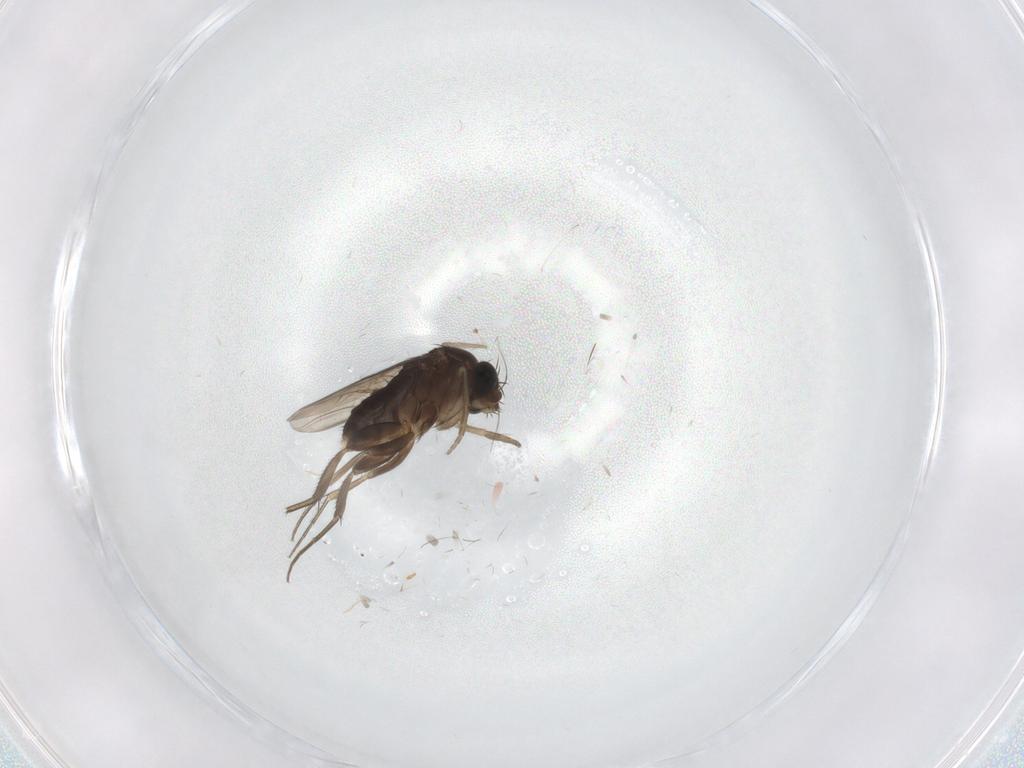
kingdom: Animalia
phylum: Arthropoda
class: Insecta
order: Diptera
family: Phoridae
